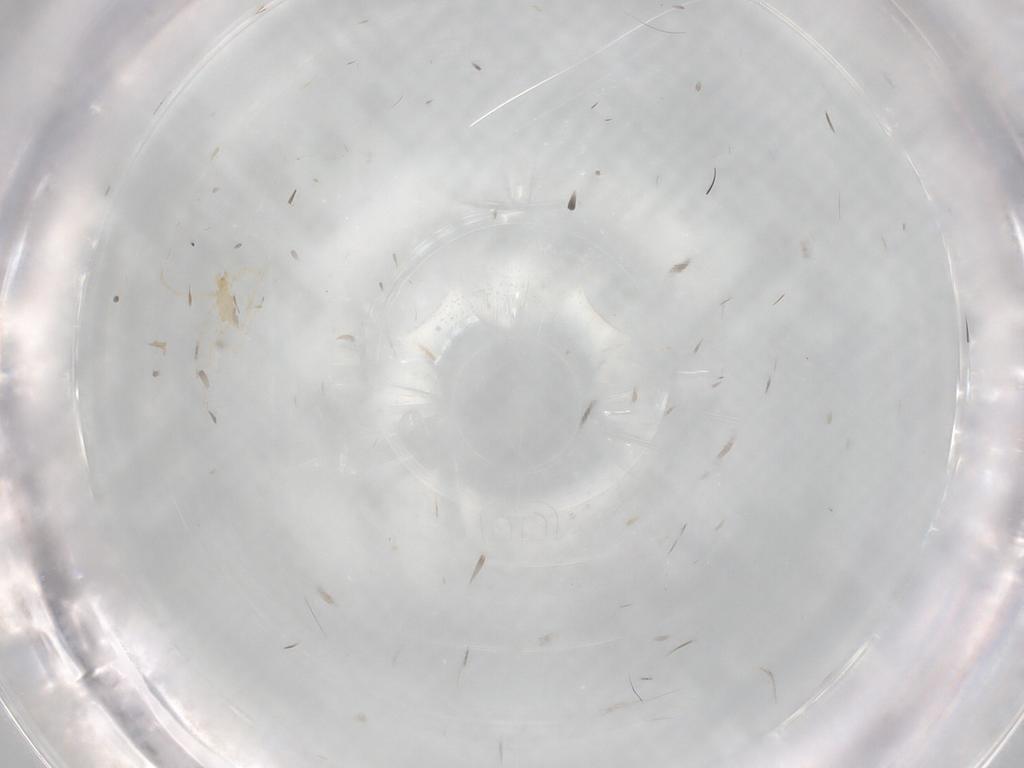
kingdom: Animalia
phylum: Arthropoda
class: Arachnida
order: Trombidiformes
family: Erythraeidae
